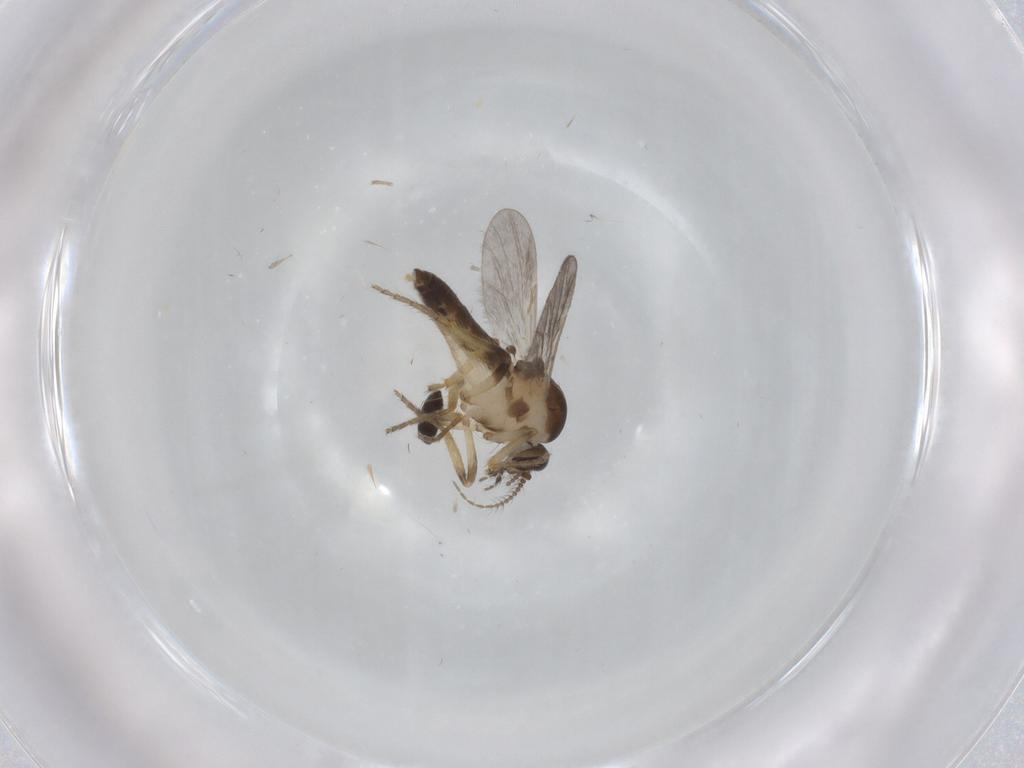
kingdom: Animalia
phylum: Arthropoda
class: Insecta
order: Diptera
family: Ceratopogonidae
